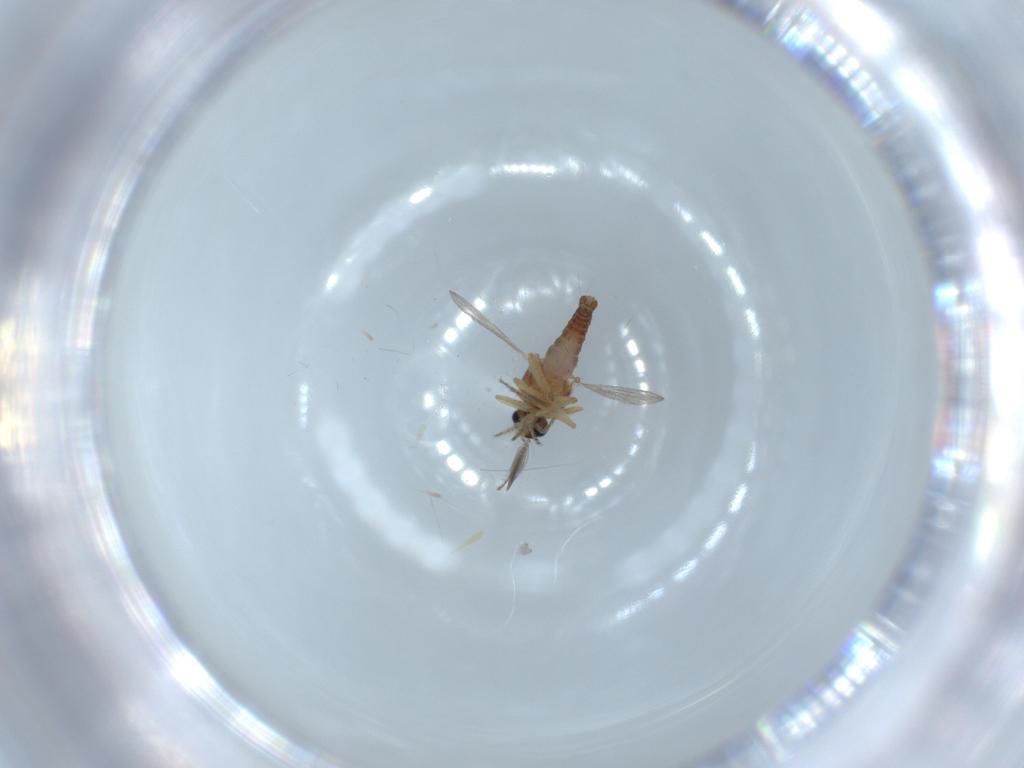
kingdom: Animalia
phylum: Arthropoda
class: Insecta
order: Diptera
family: Ceratopogonidae
